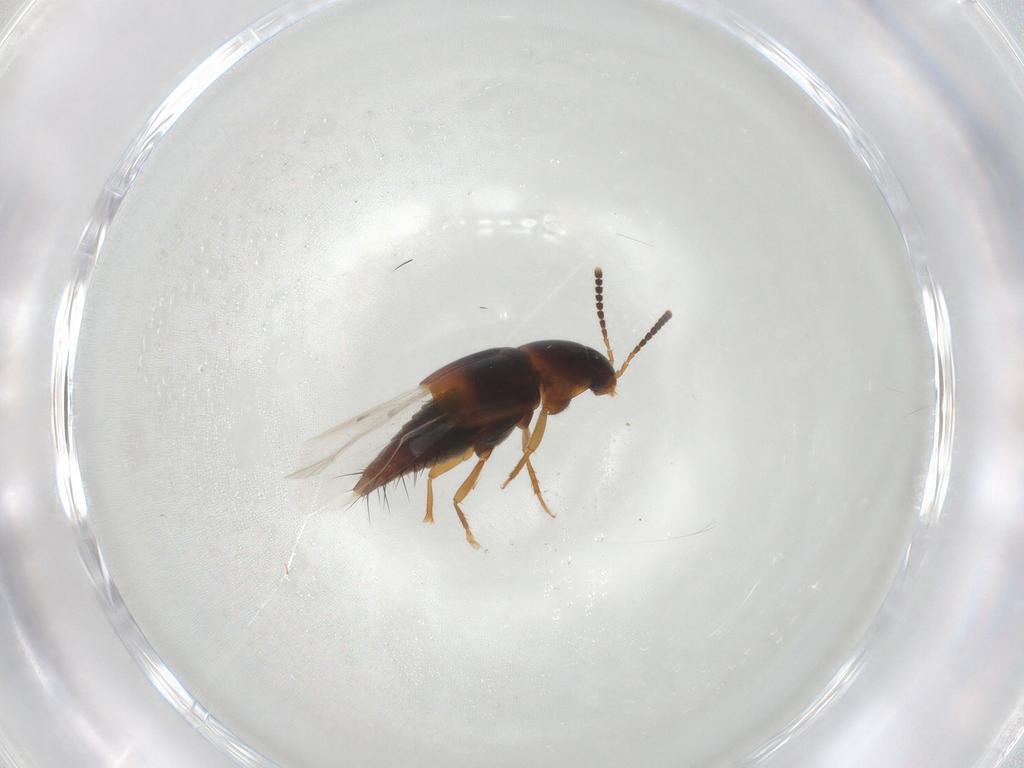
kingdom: Animalia
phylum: Arthropoda
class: Insecta
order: Coleoptera
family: Staphylinidae
